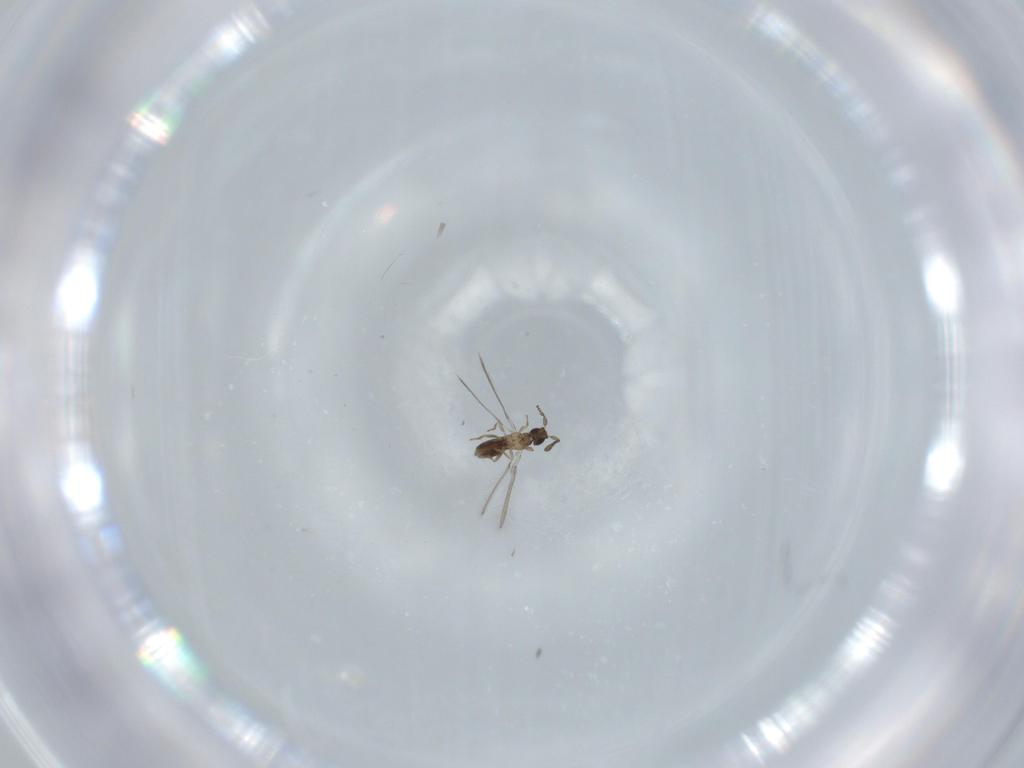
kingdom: Animalia
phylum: Arthropoda
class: Insecta
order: Hymenoptera
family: Mymaridae
